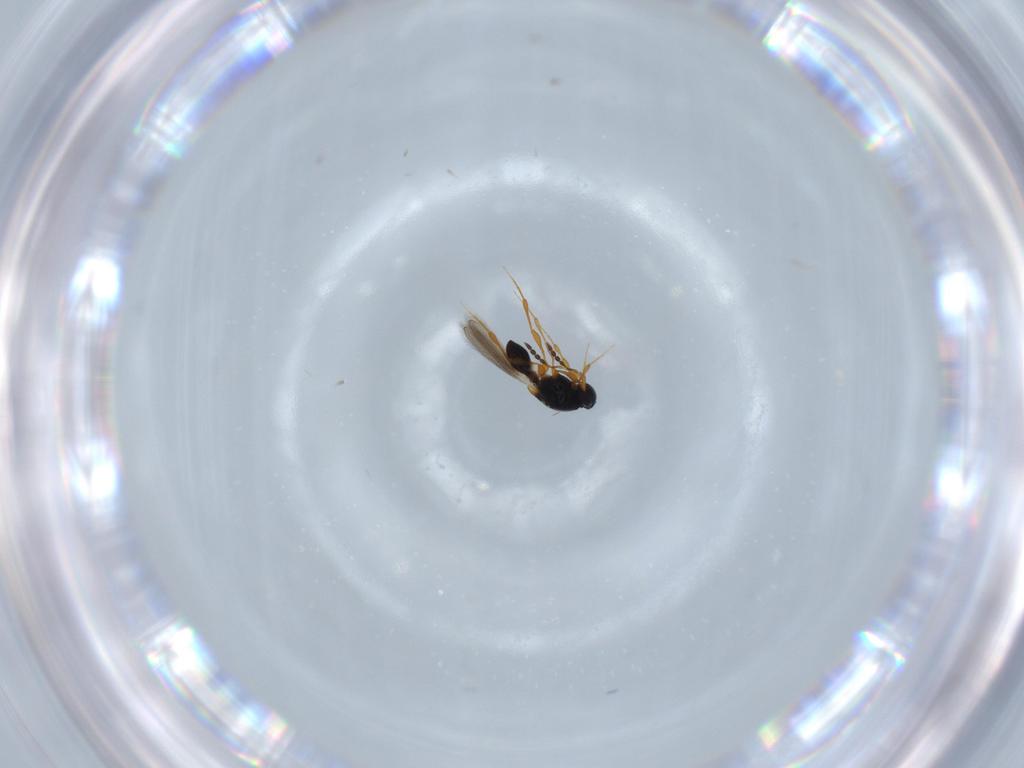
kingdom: Animalia
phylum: Arthropoda
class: Insecta
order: Hymenoptera
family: Platygastridae
